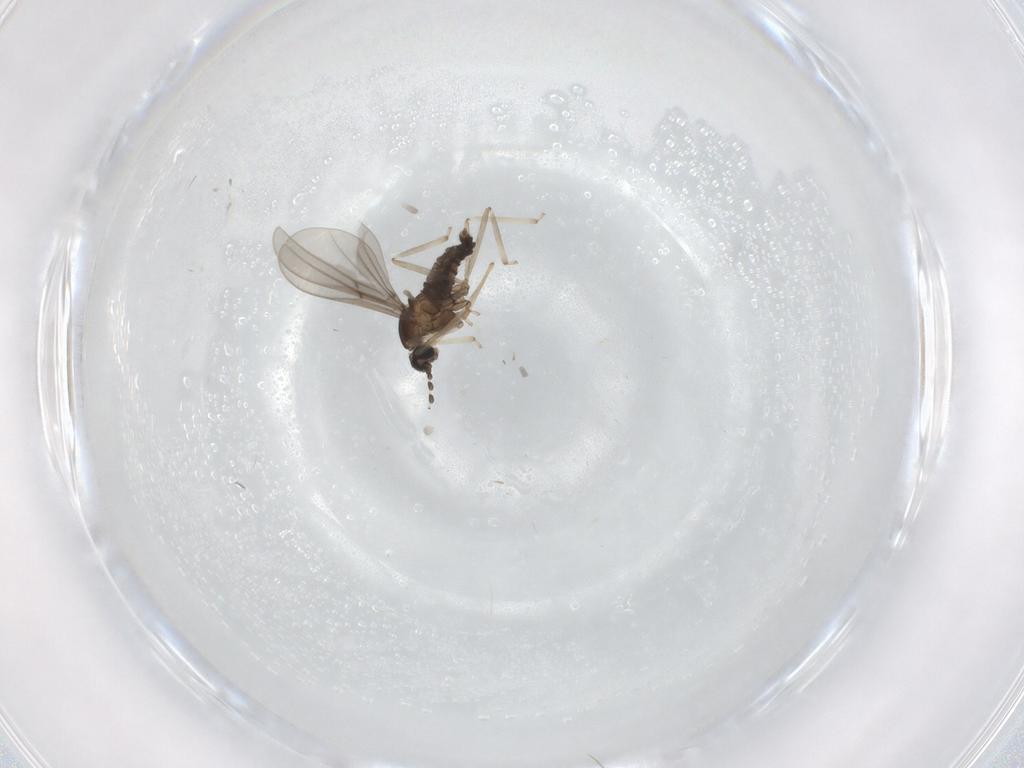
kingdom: Animalia
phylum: Arthropoda
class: Insecta
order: Diptera
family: Cecidomyiidae
